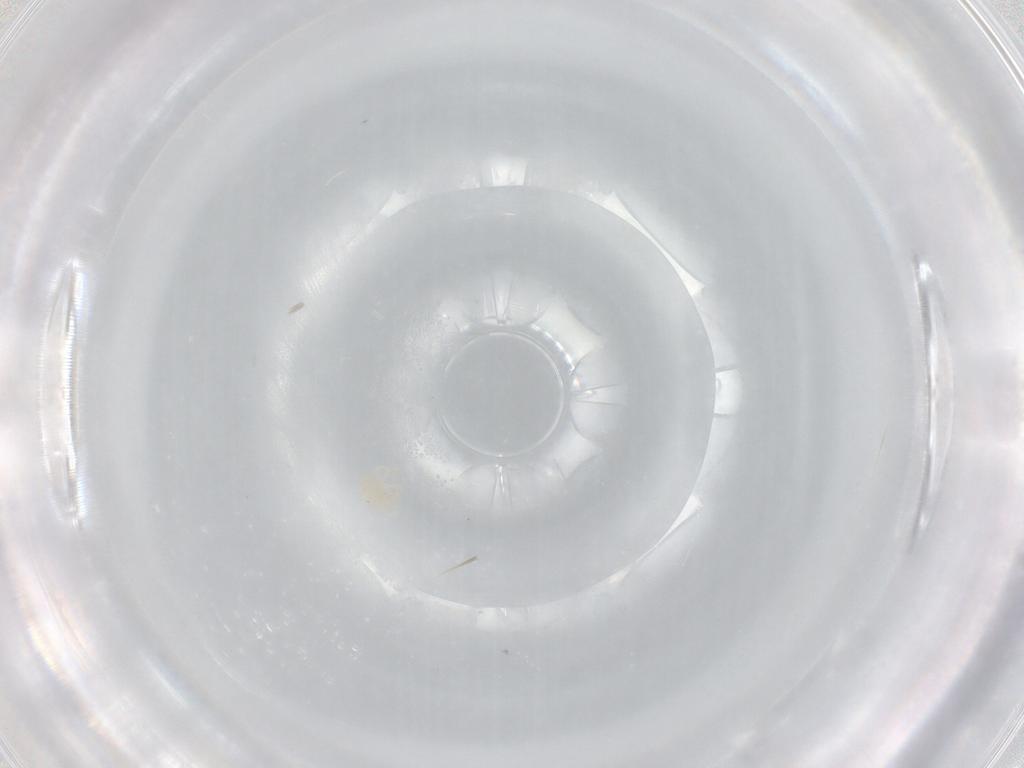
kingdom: Animalia
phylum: Arthropoda
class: Arachnida
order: Trombidiformes
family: Anystidae
